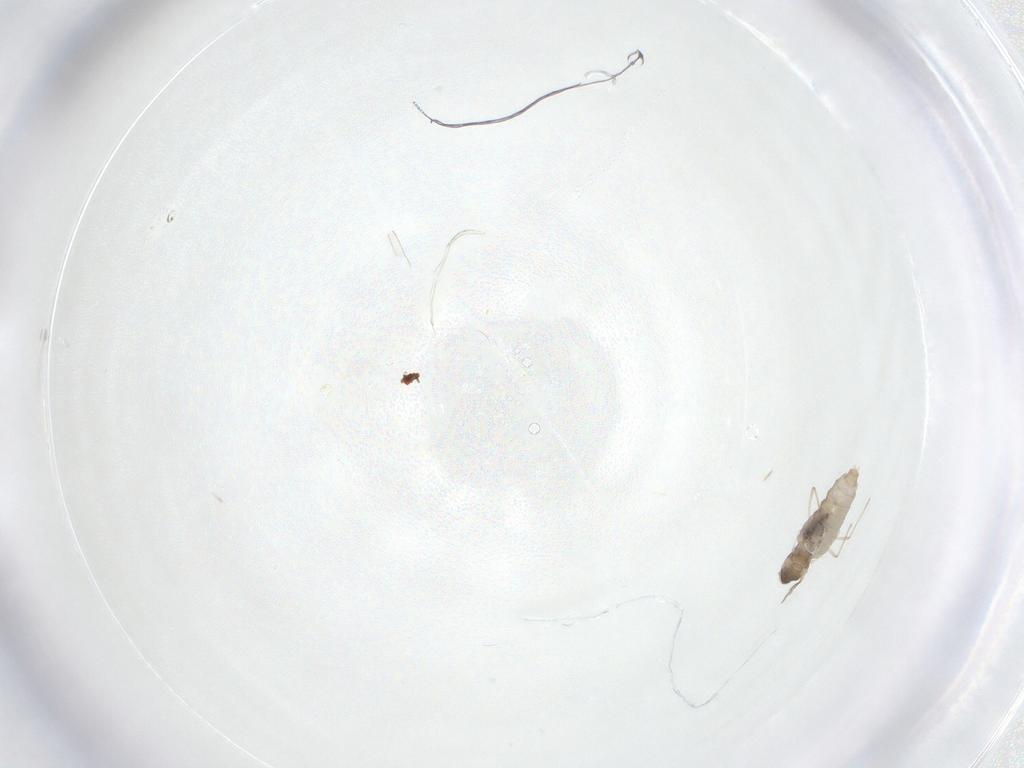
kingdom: Animalia
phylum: Arthropoda
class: Insecta
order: Diptera
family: Cecidomyiidae
